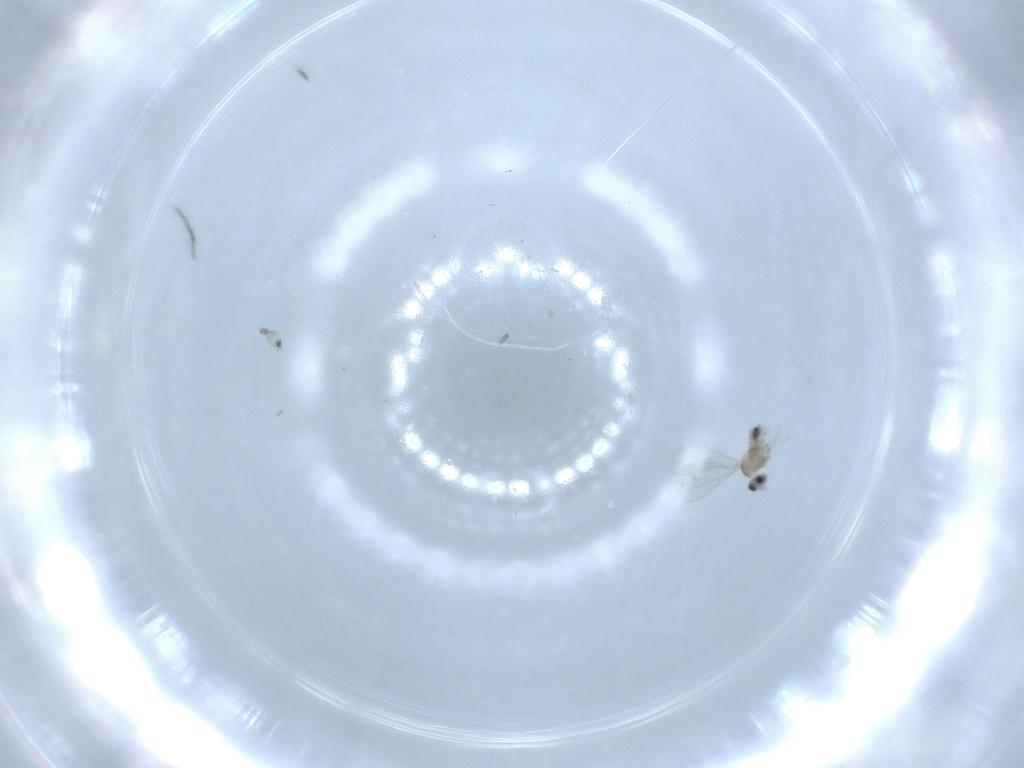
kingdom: Animalia
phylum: Arthropoda
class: Insecta
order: Diptera
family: Cecidomyiidae
